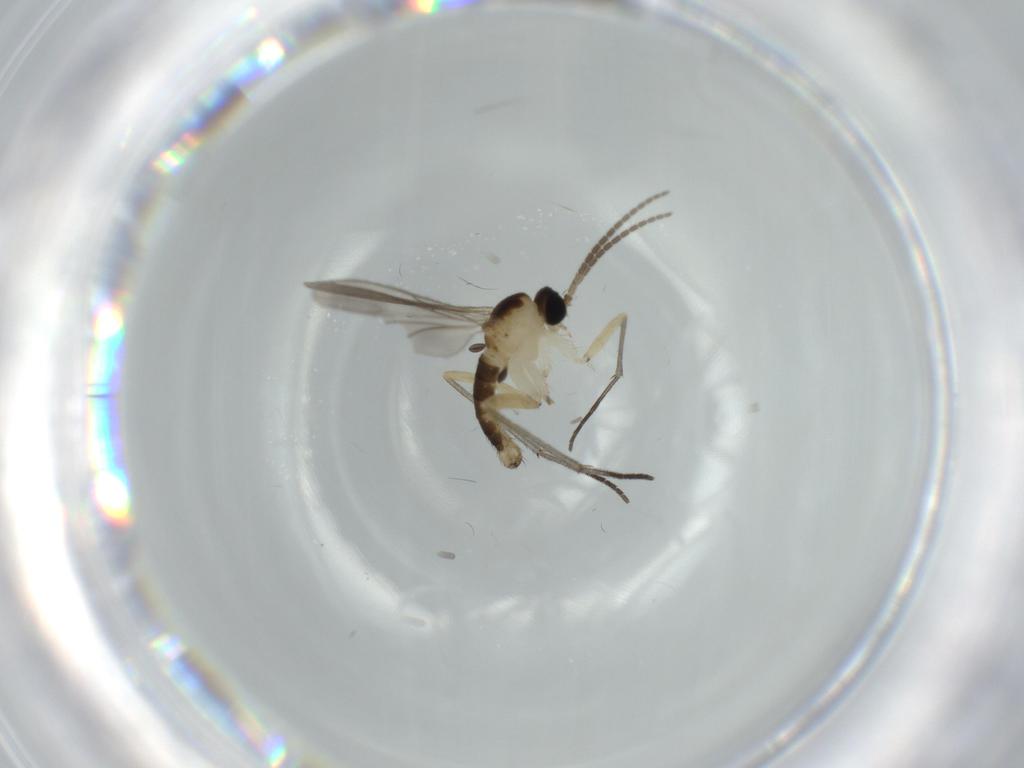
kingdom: Animalia
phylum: Arthropoda
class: Insecta
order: Diptera
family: Sciaridae
